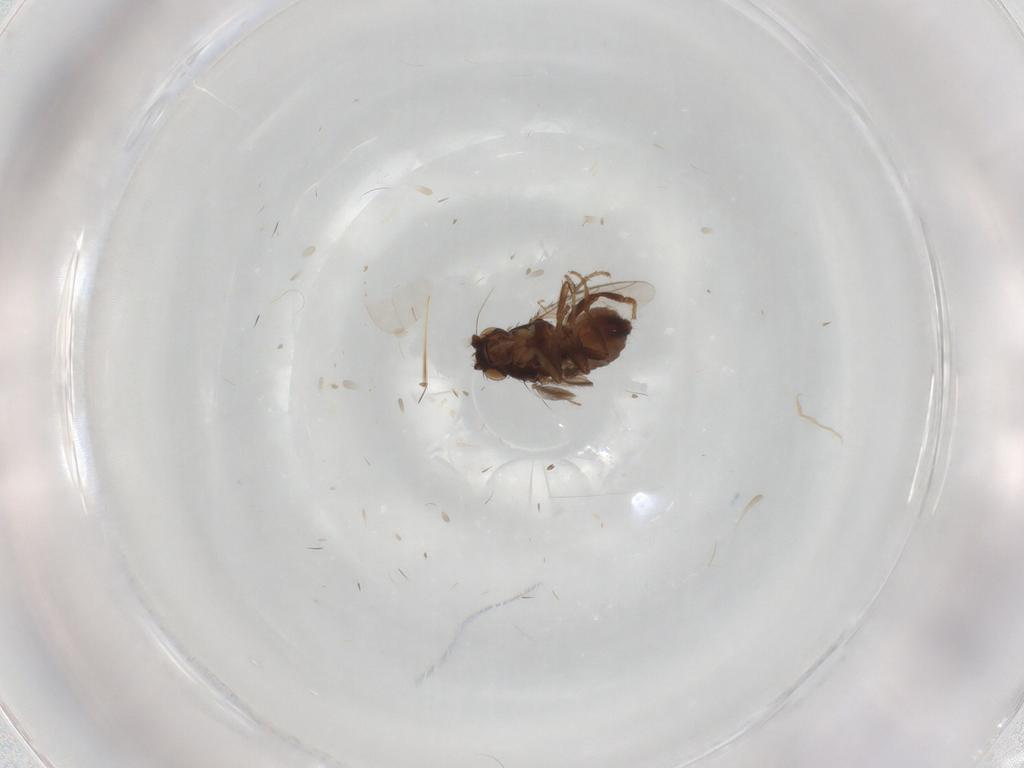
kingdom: Animalia
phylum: Arthropoda
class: Insecta
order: Diptera
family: Sphaeroceridae
